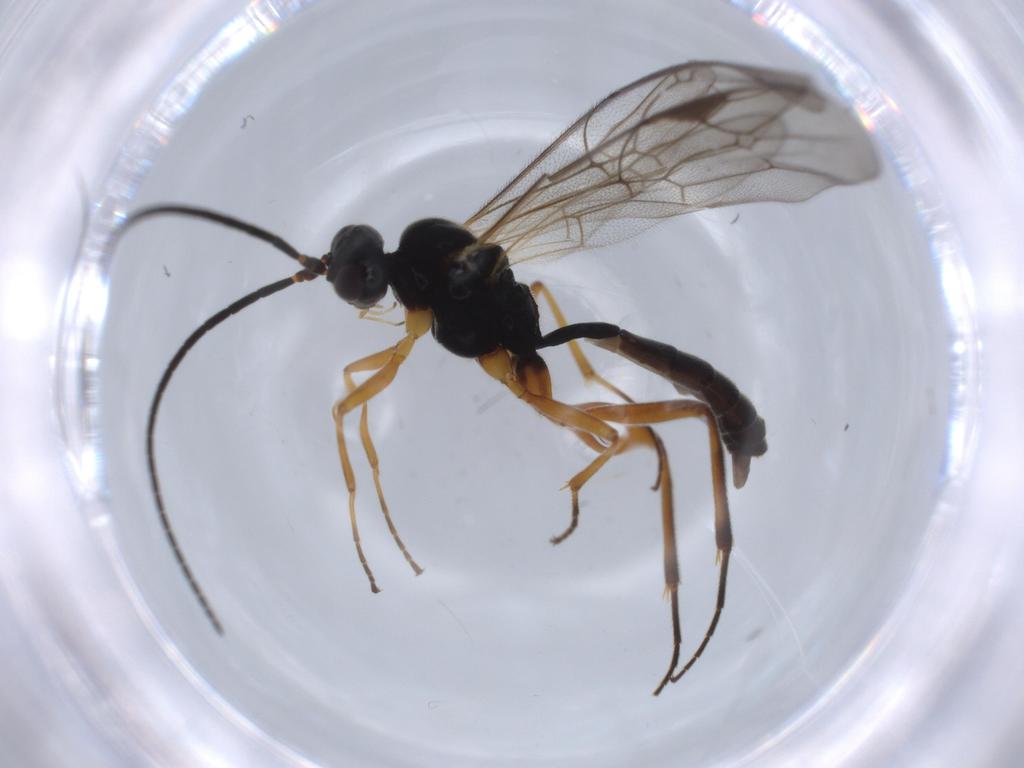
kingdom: Animalia
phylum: Arthropoda
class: Insecta
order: Hymenoptera
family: Ichneumonidae
